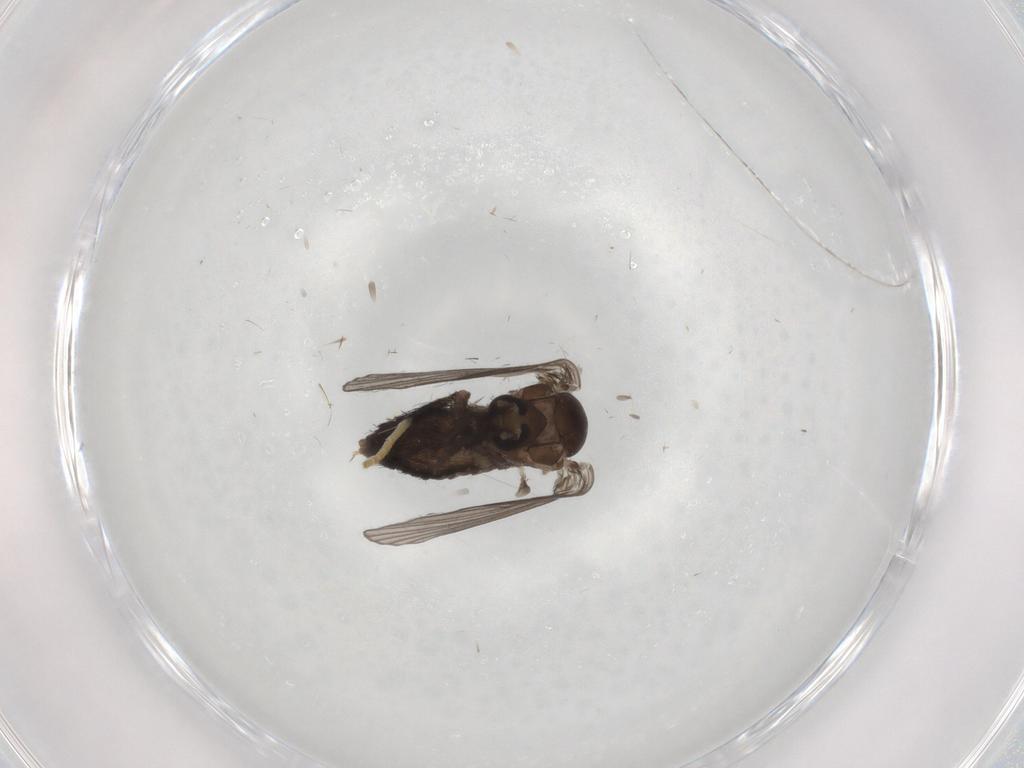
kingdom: Animalia
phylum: Arthropoda
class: Insecta
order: Diptera
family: Psychodidae
